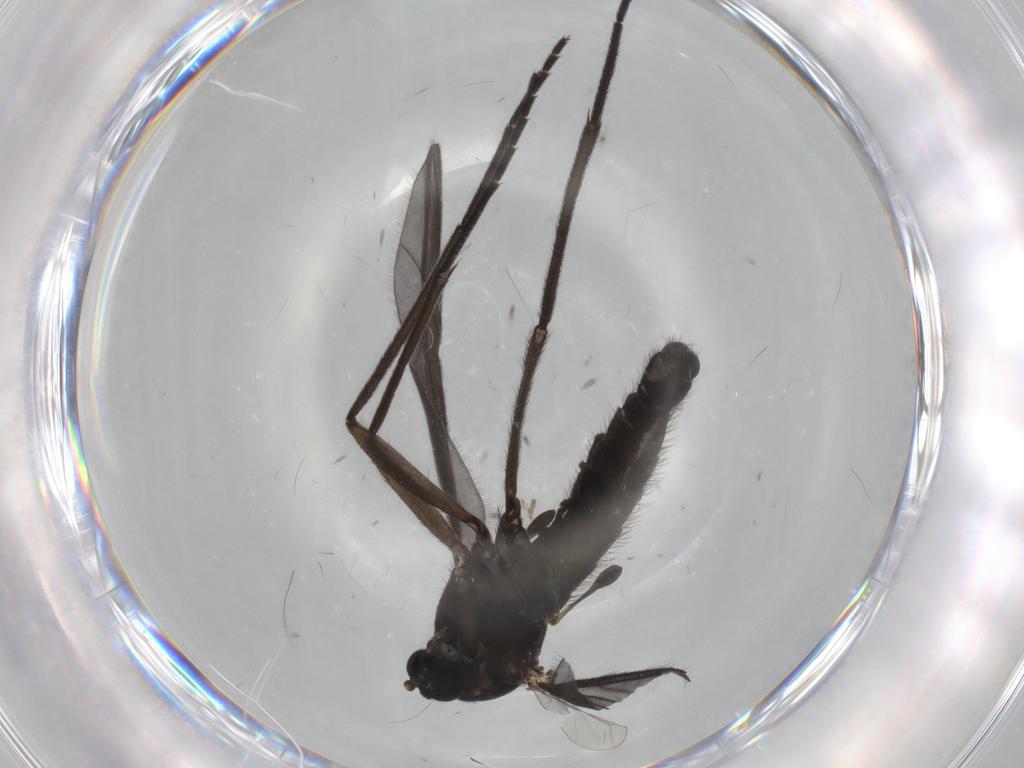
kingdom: Animalia
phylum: Arthropoda
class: Insecta
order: Diptera
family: Sciaridae
